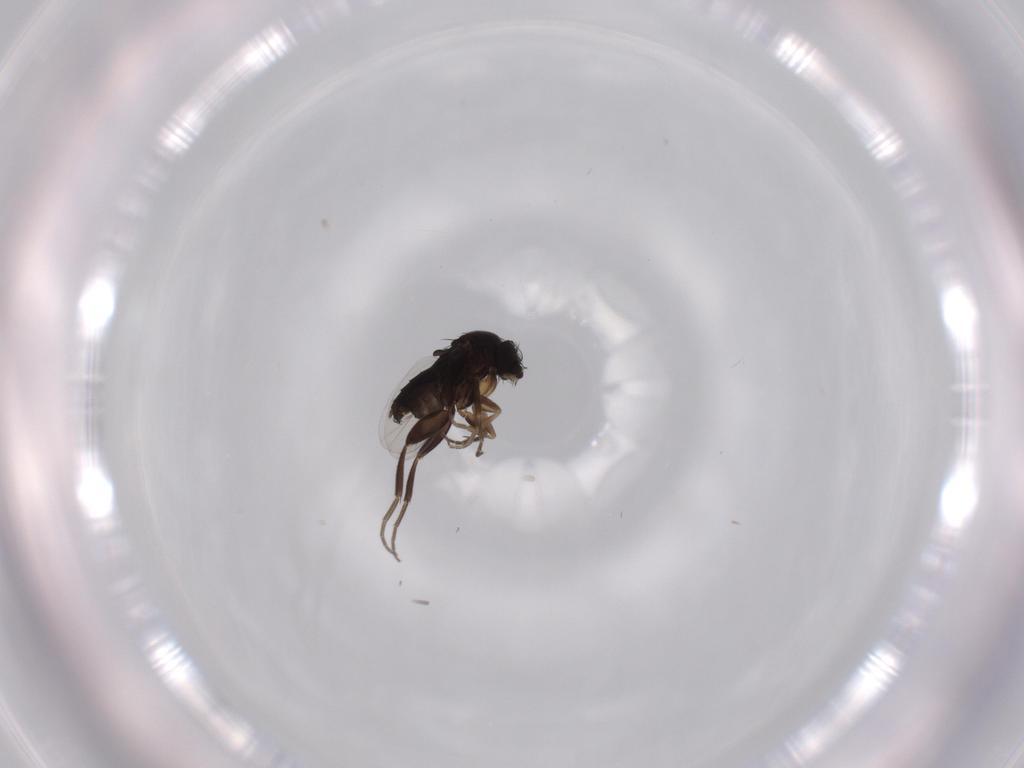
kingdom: Animalia
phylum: Arthropoda
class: Insecta
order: Diptera
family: Phoridae
